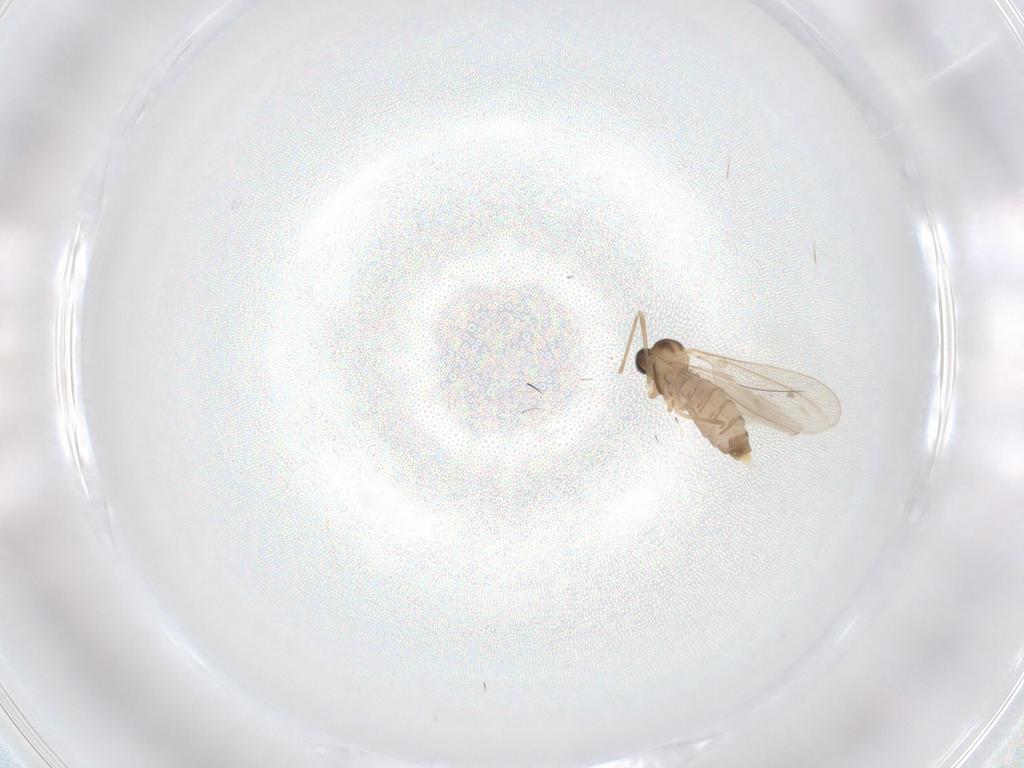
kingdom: Animalia
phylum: Arthropoda
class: Insecta
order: Diptera
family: Cecidomyiidae
